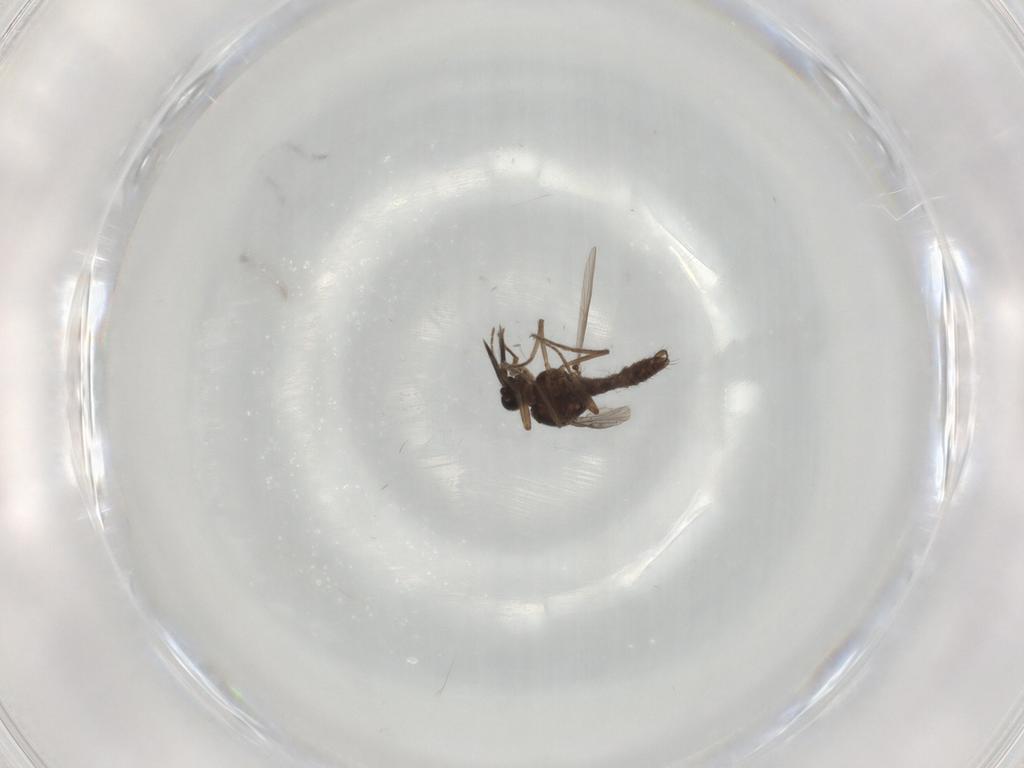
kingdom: Animalia
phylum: Arthropoda
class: Insecta
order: Diptera
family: Ceratopogonidae
